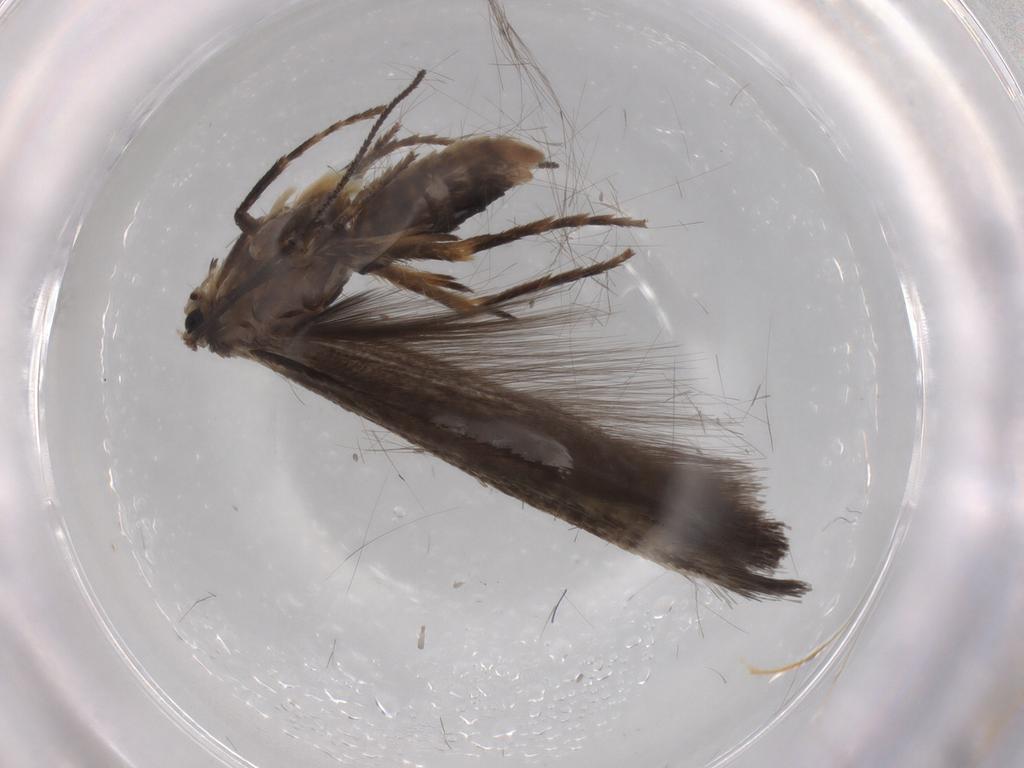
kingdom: Animalia
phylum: Arthropoda
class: Insecta
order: Lepidoptera
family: Nepticulidae
